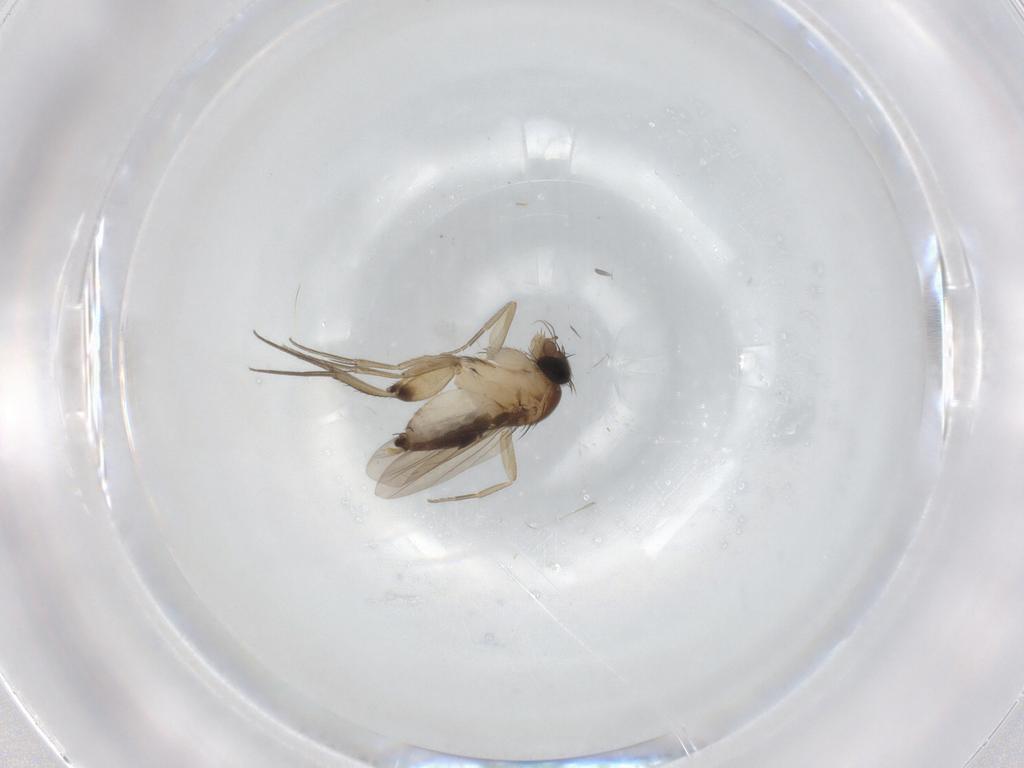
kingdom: Animalia
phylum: Arthropoda
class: Insecta
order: Diptera
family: Phoridae
